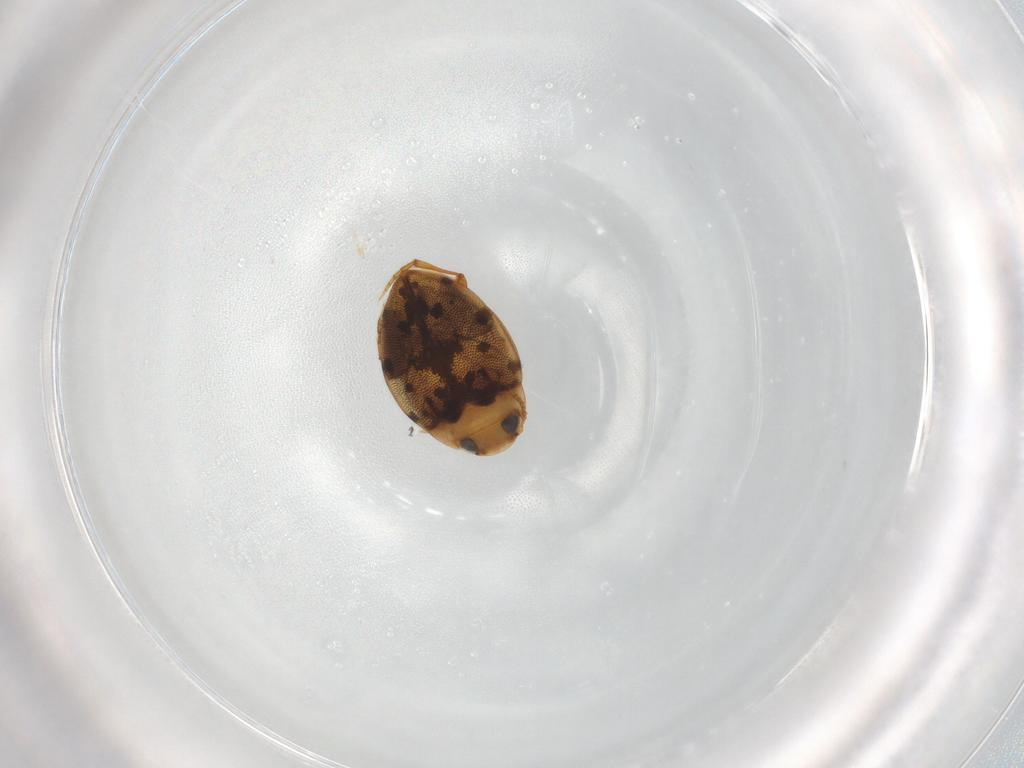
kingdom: Animalia
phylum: Arthropoda
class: Insecta
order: Coleoptera
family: Dytiscidae
